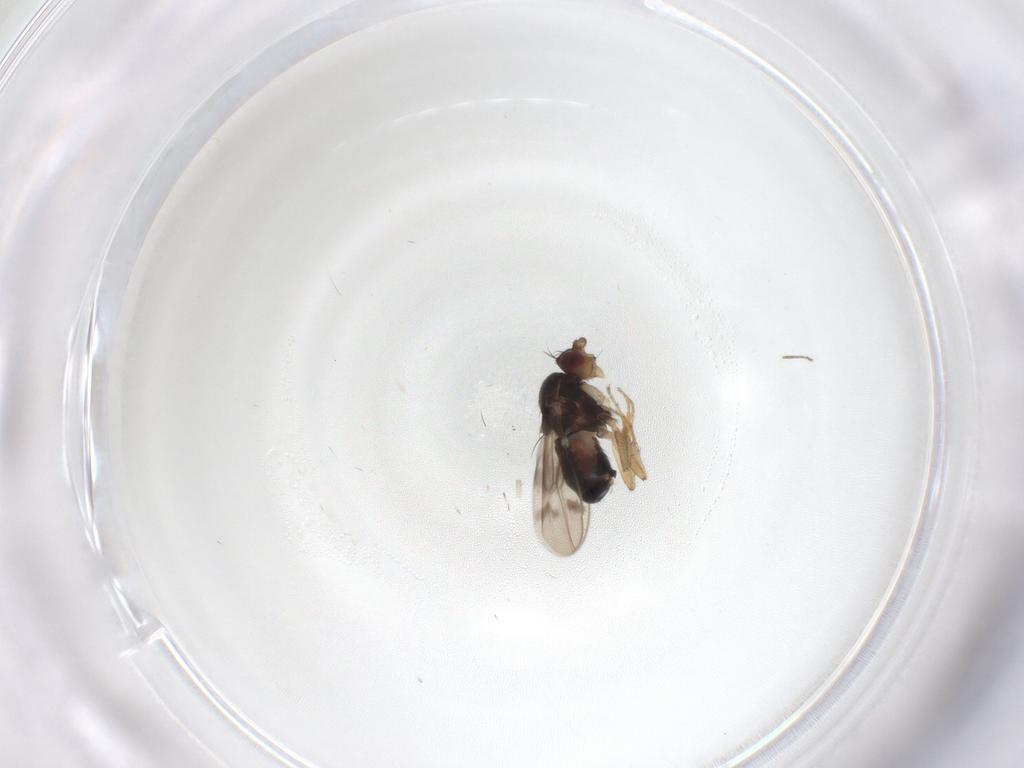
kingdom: Animalia
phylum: Arthropoda
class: Insecta
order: Diptera
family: Sphaeroceridae
